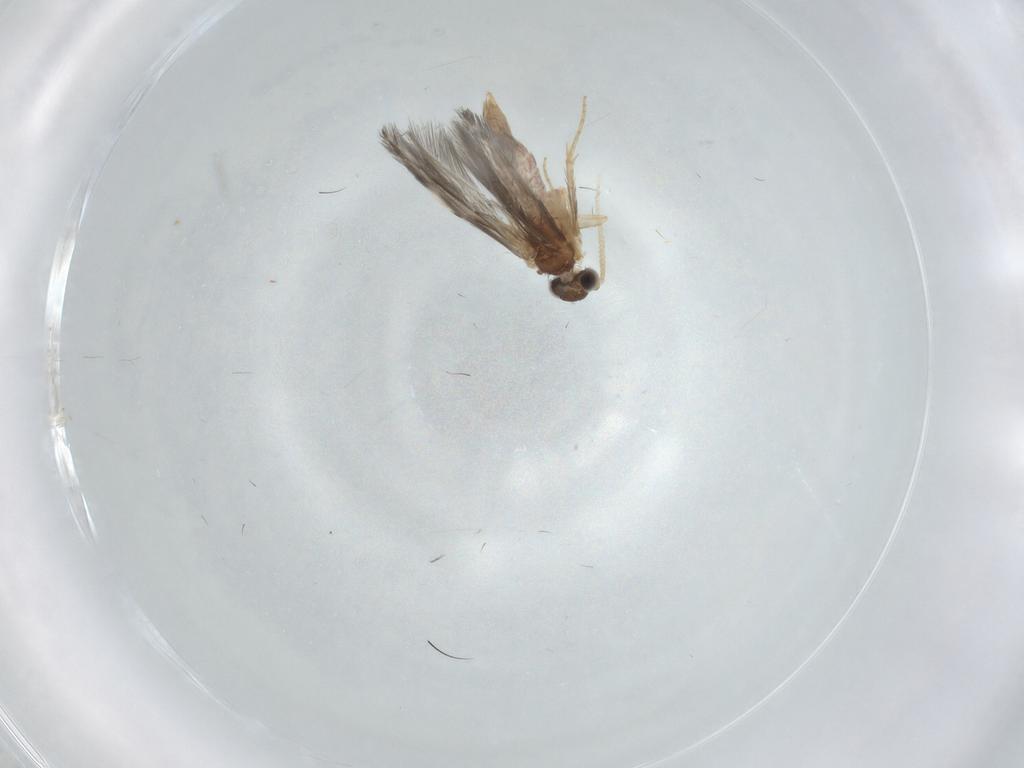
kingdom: Animalia
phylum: Arthropoda
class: Insecta
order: Trichoptera
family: Hydroptilidae
